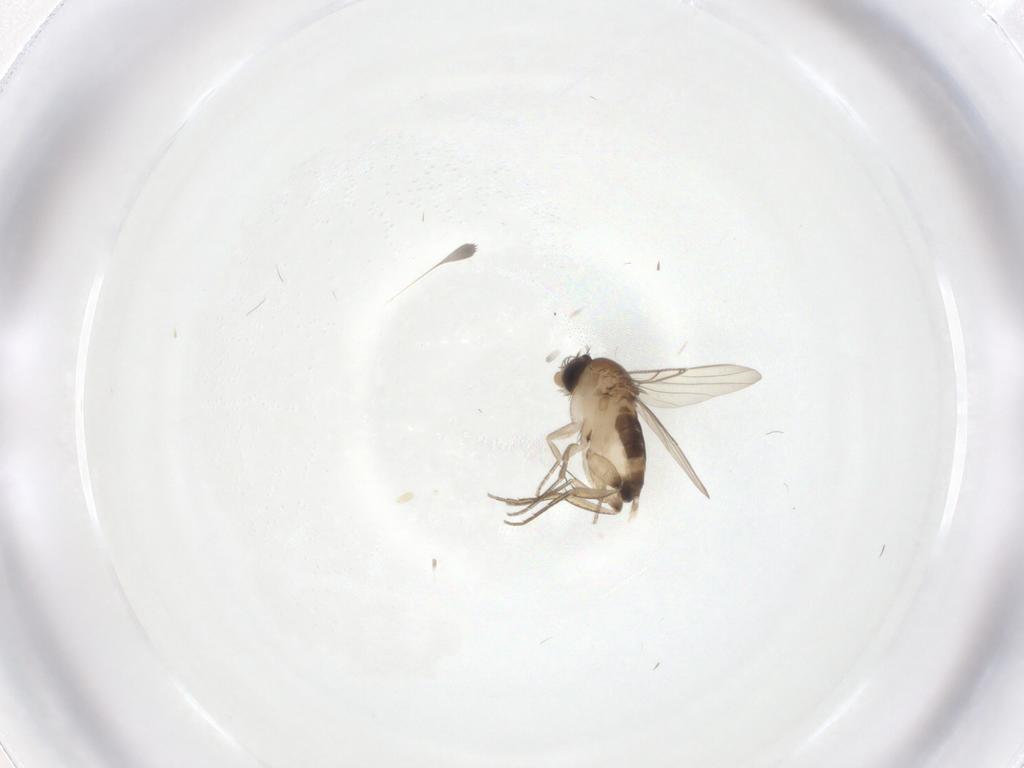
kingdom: Animalia
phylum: Arthropoda
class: Insecta
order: Diptera
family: Phoridae
